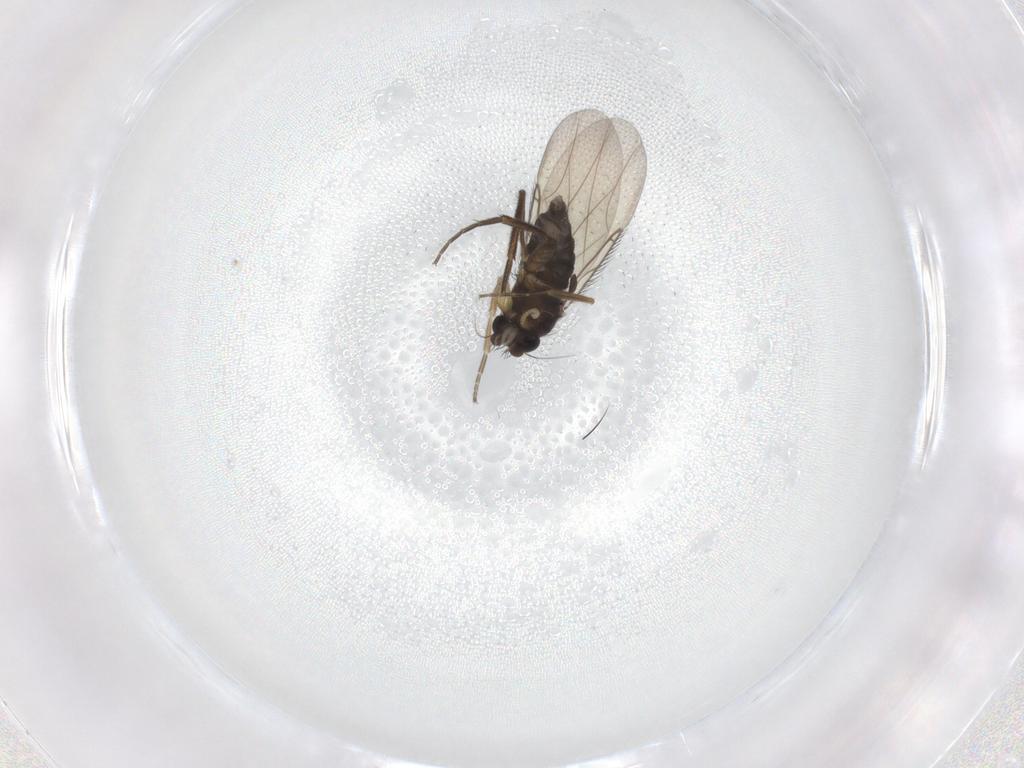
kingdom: Animalia
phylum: Arthropoda
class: Insecta
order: Diptera
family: Phoridae
